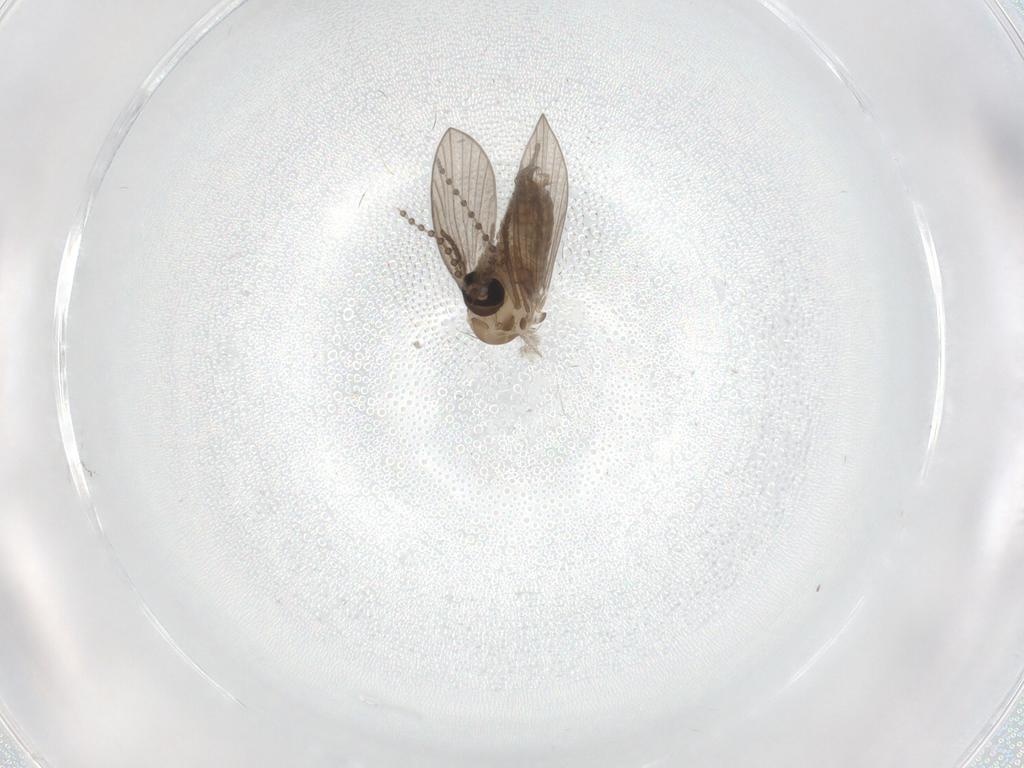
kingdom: Animalia
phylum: Arthropoda
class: Insecta
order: Diptera
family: Psychodidae
